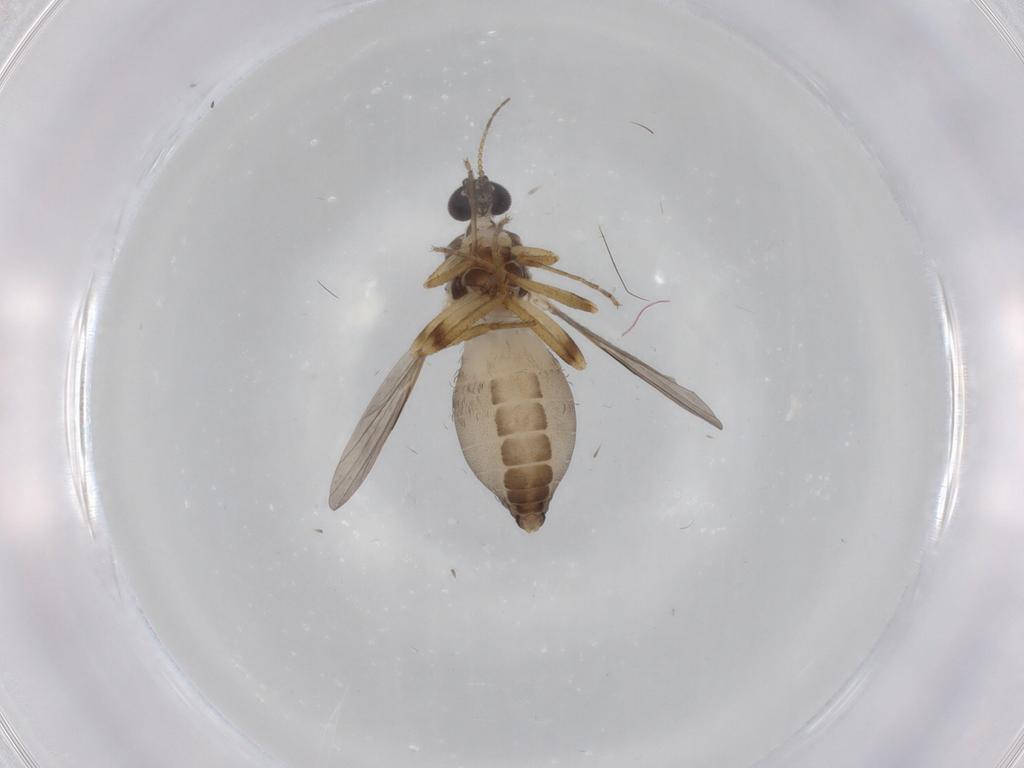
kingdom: Animalia
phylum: Arthropoda
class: Insecta
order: Diptera
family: Ceratopogonidae
